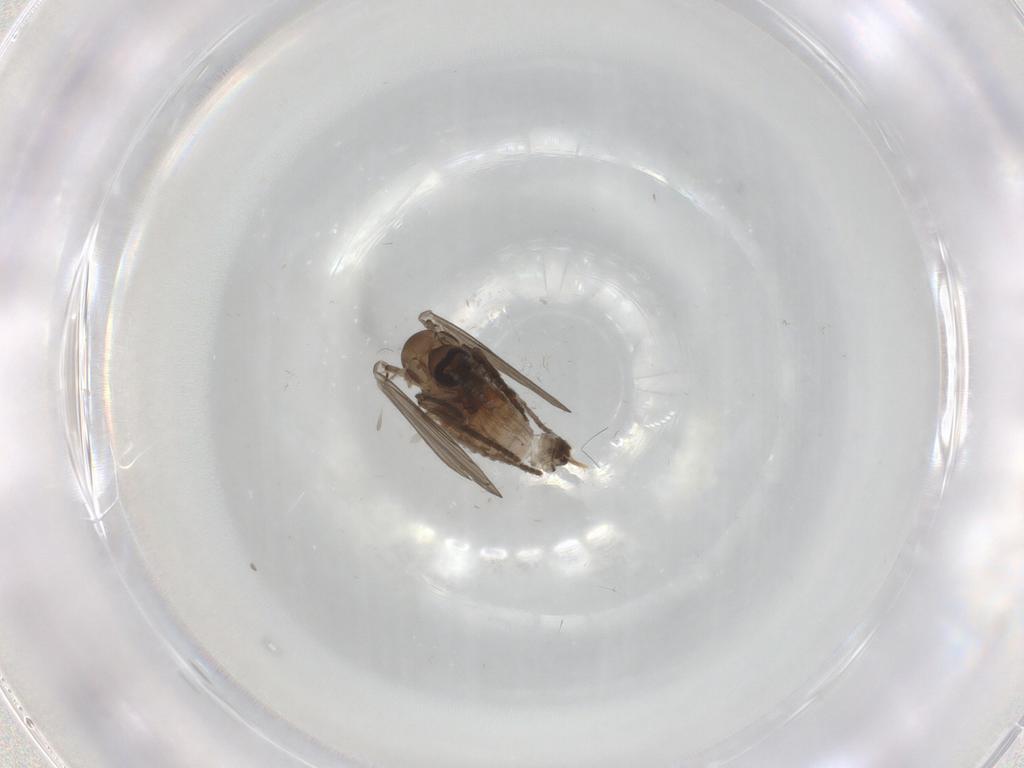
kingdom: Animalia
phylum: Arthropoda
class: Insecta
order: Diptera
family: Psychodidae
